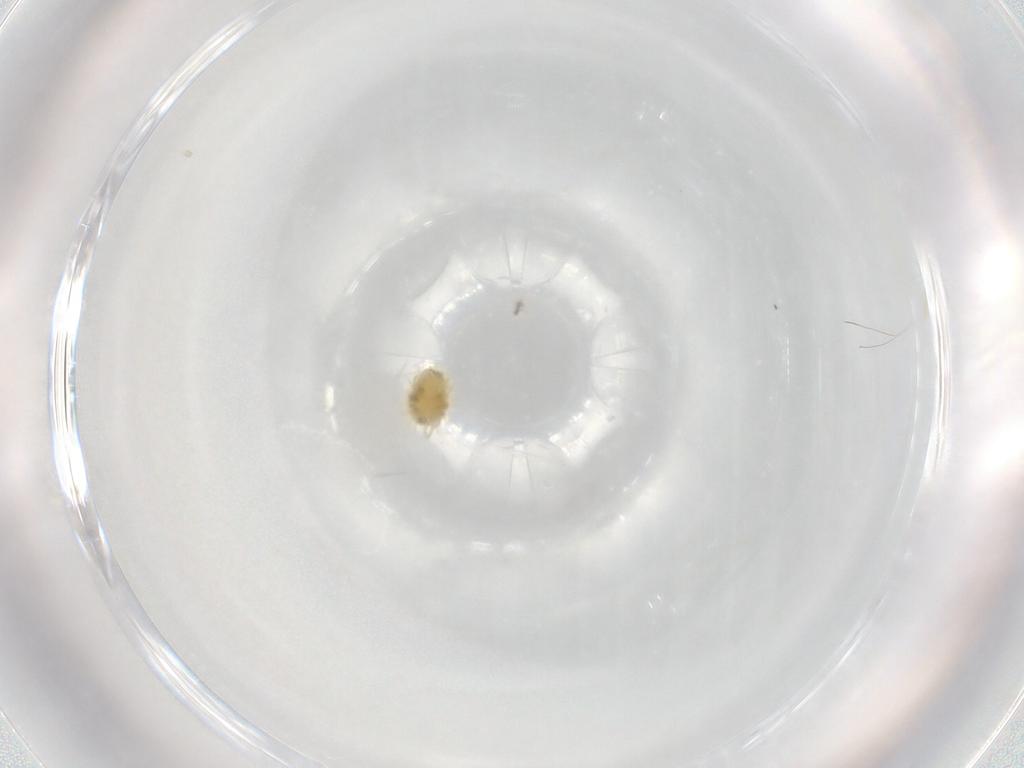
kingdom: Animalia
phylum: Arthropoda
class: Arachnida
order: Trombidiformes
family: Tetranychidae
